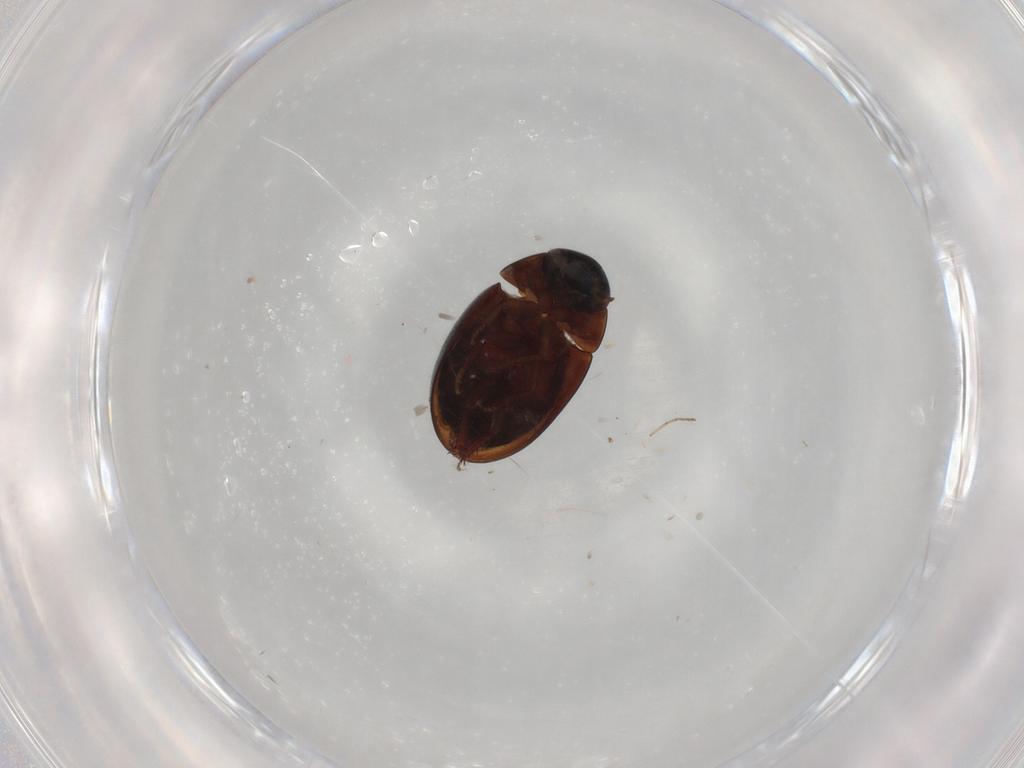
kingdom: Animalia
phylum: Arthropoda
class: Insecta
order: Coleoptera
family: Hydrophilidae
